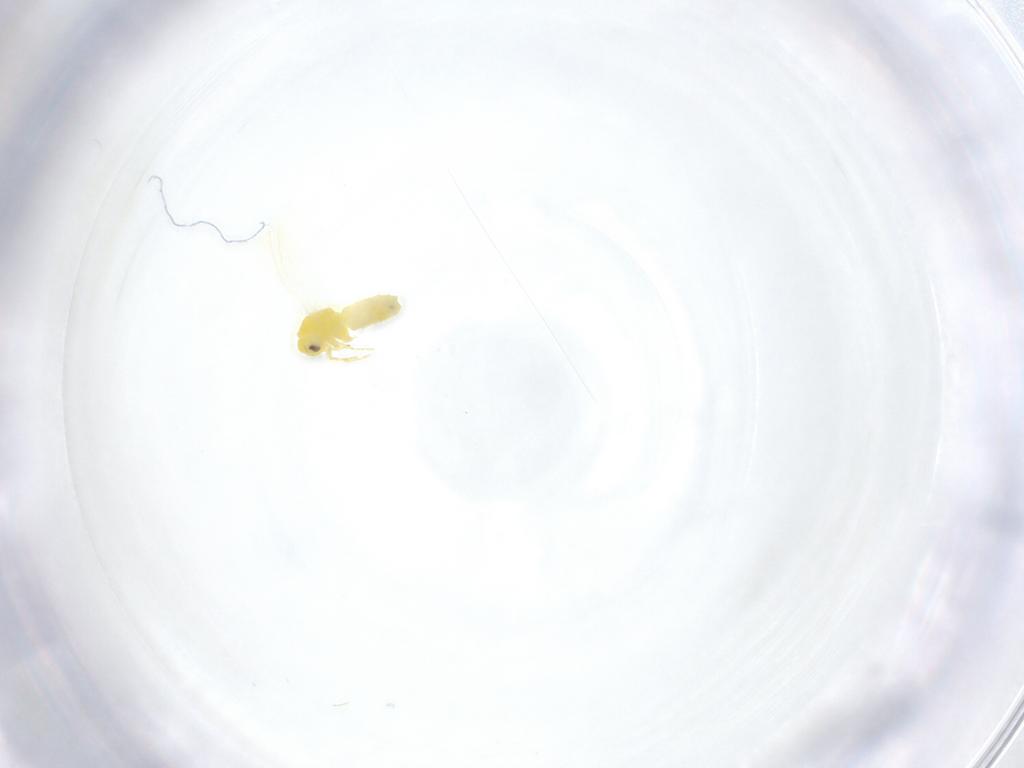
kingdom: Animalia
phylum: Arthropoda
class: Insecta
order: Hemiptera
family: Aleyrodidae
